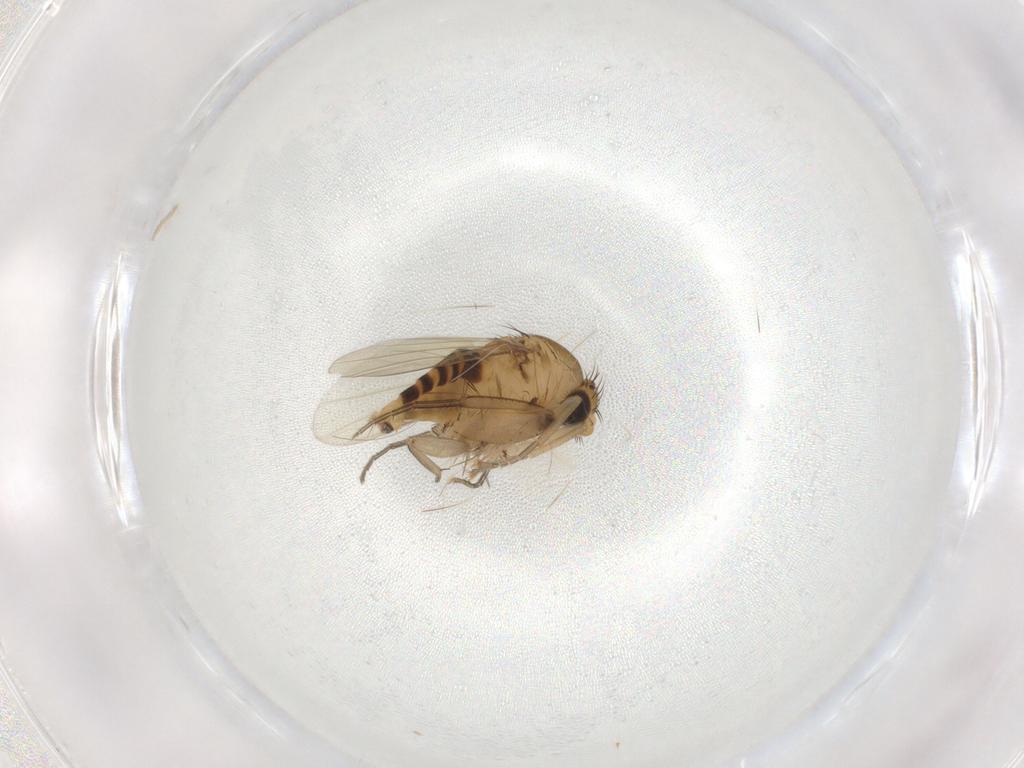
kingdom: Animalia
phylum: Arthropoda
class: Insecta
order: Diptera
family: Phoridae
